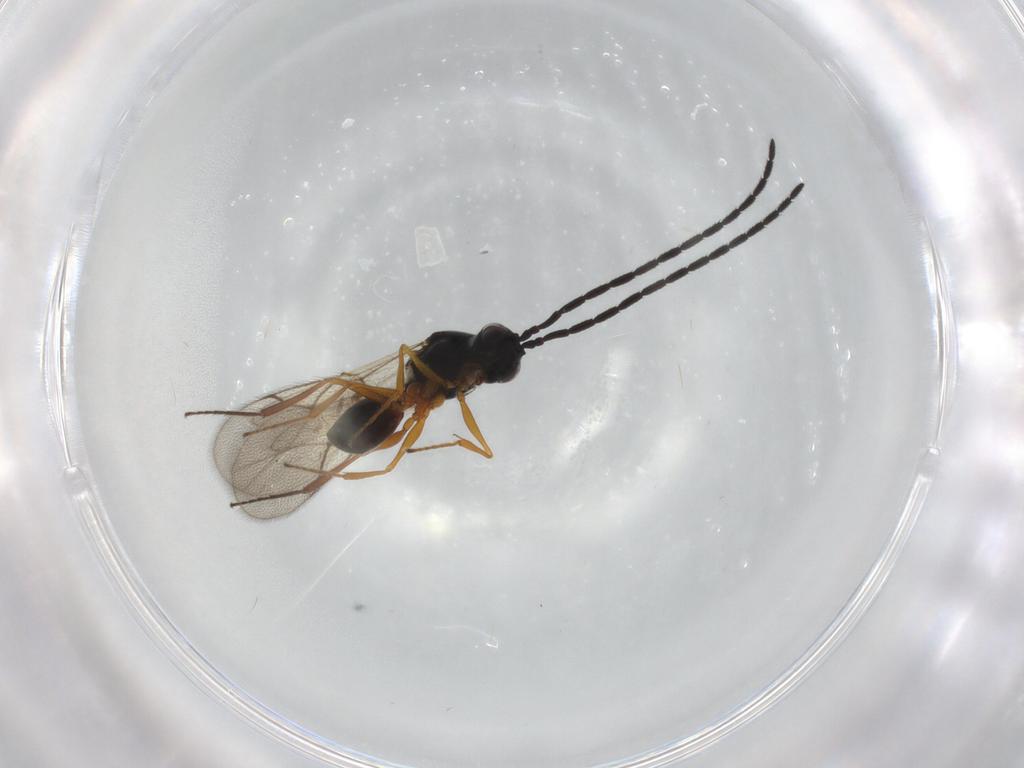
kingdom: Animalia
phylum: Arthropoda
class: Insecta
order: Hymenoptera
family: Figitidae
